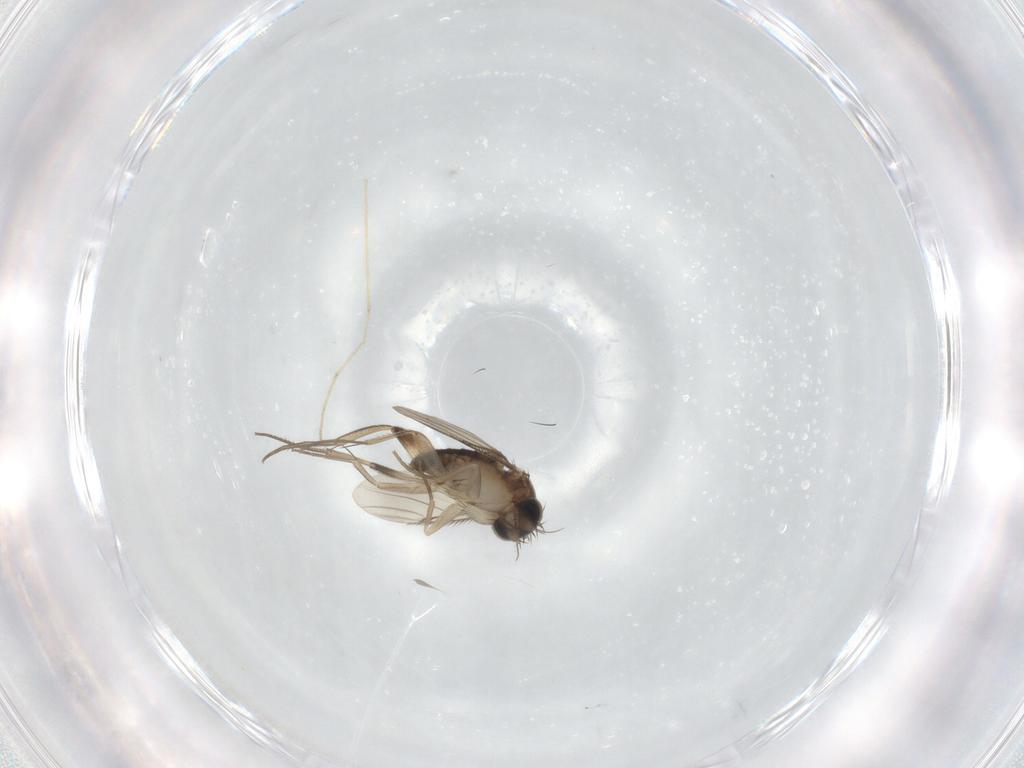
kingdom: Animalia
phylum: Arthropoda
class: Insecta
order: Diptera
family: Phoridae
